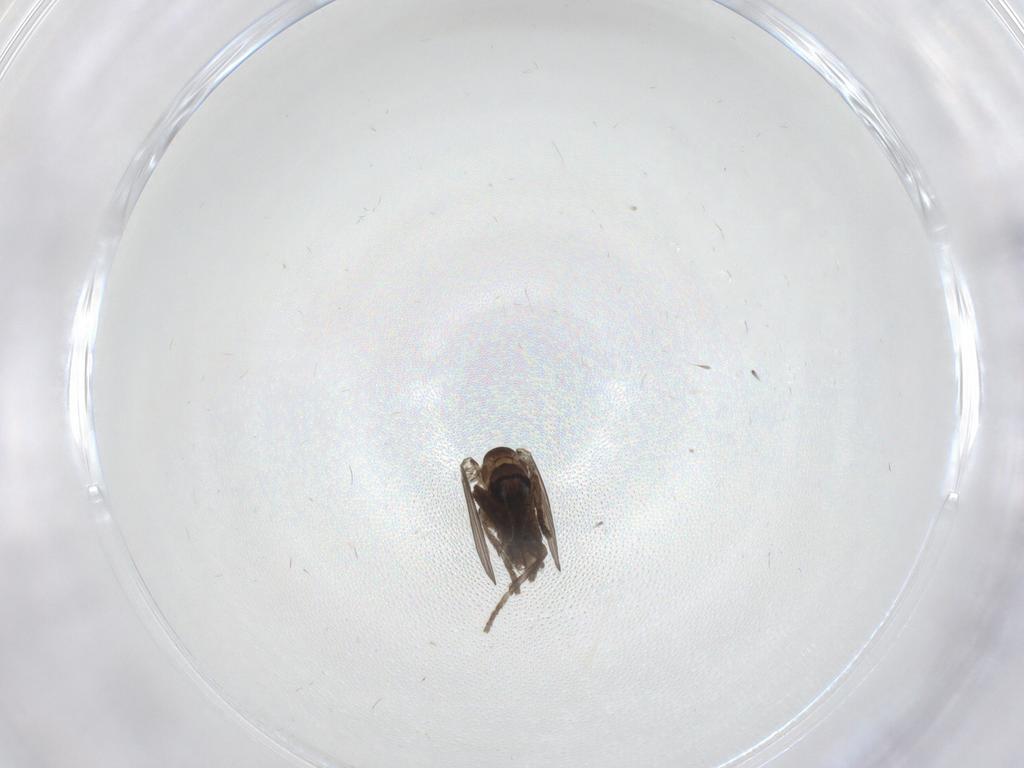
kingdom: Animalia
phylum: Arthropoda
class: Insecta
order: Diptera
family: Psychodidae
